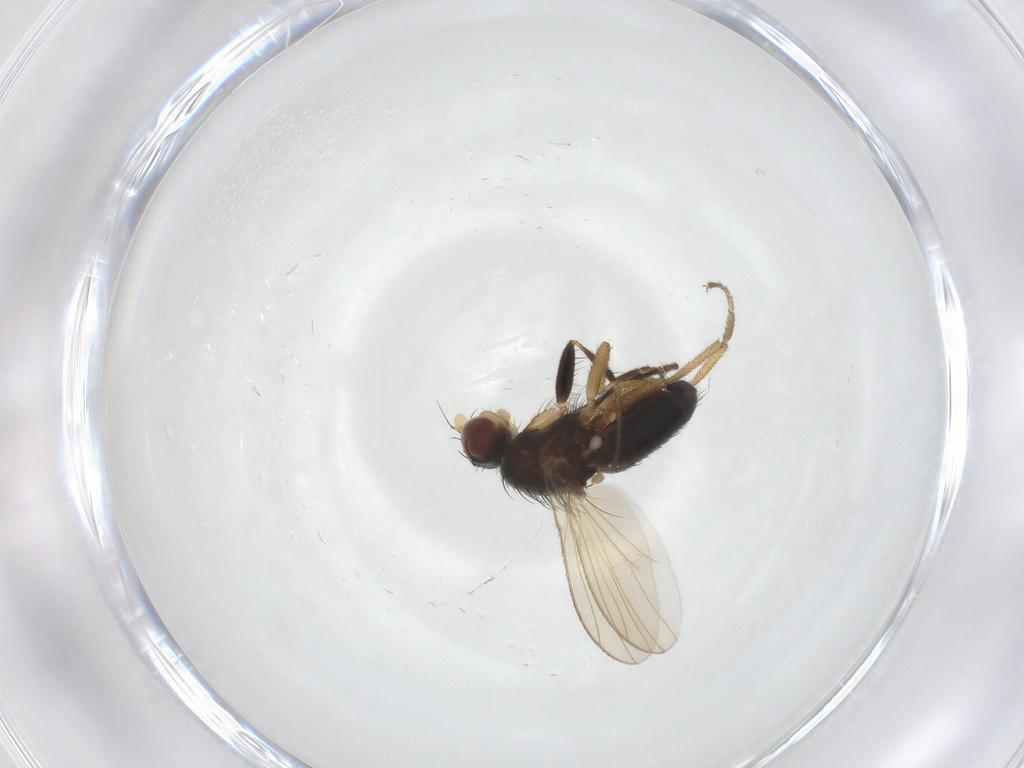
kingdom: Animalia
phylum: Arthropoda
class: Insecta
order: Diptera
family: Heleomyzidae
